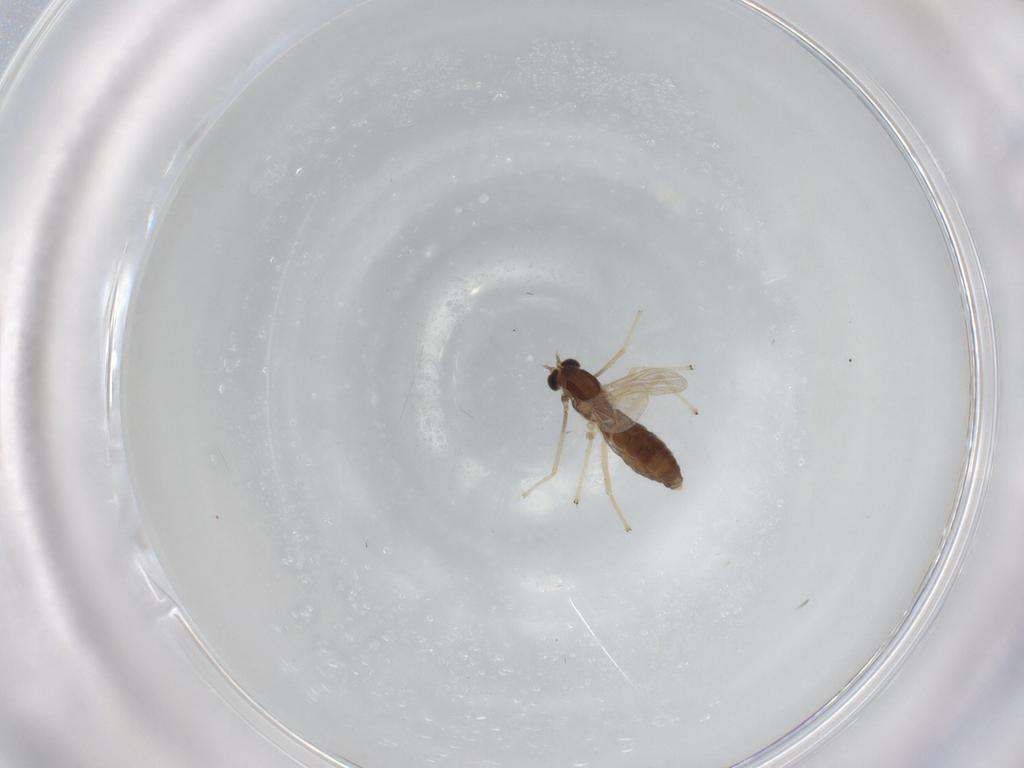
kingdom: Animalia
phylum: Arthropoda
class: Insecta
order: Diptera
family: Chironomidae
